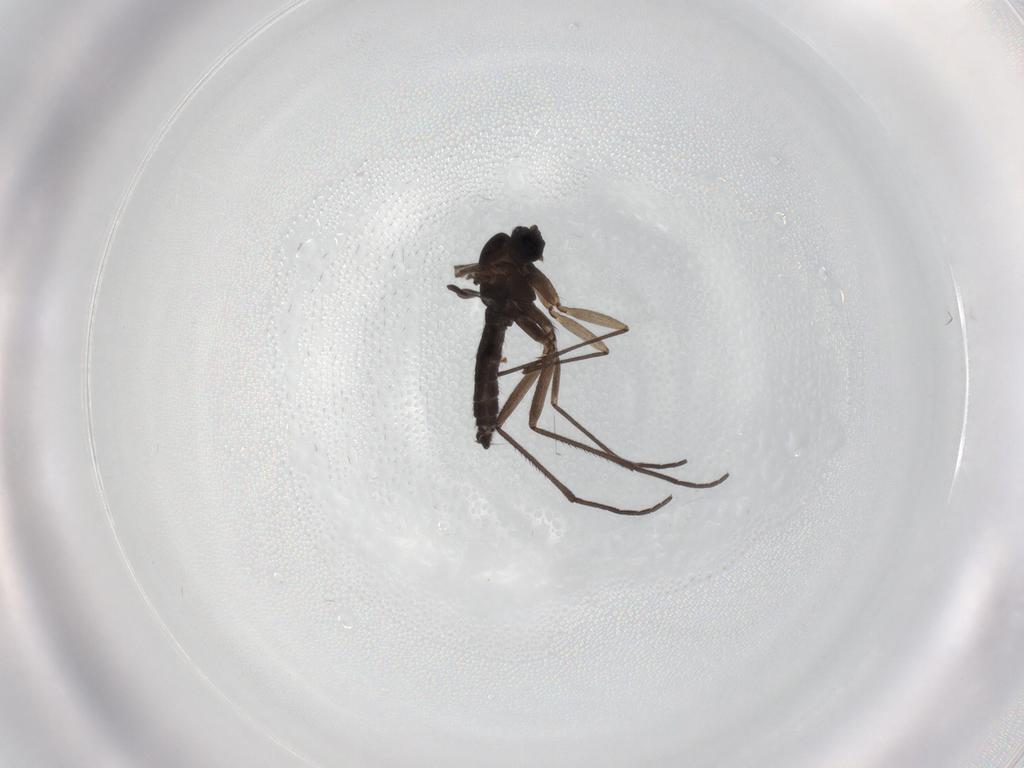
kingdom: Animalia
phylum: Arthropoda
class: Insecta
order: Diptera
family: Sciaridae
